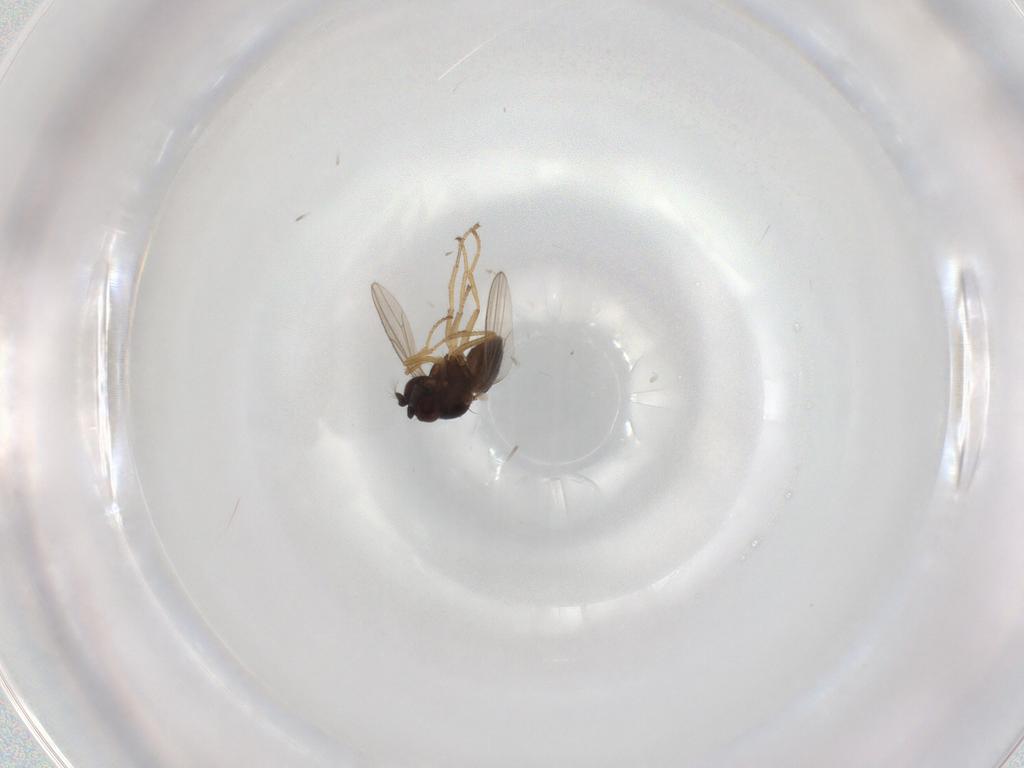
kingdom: Animalia
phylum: Arthropoda
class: Insecta
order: Diptera
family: Ephydridae
